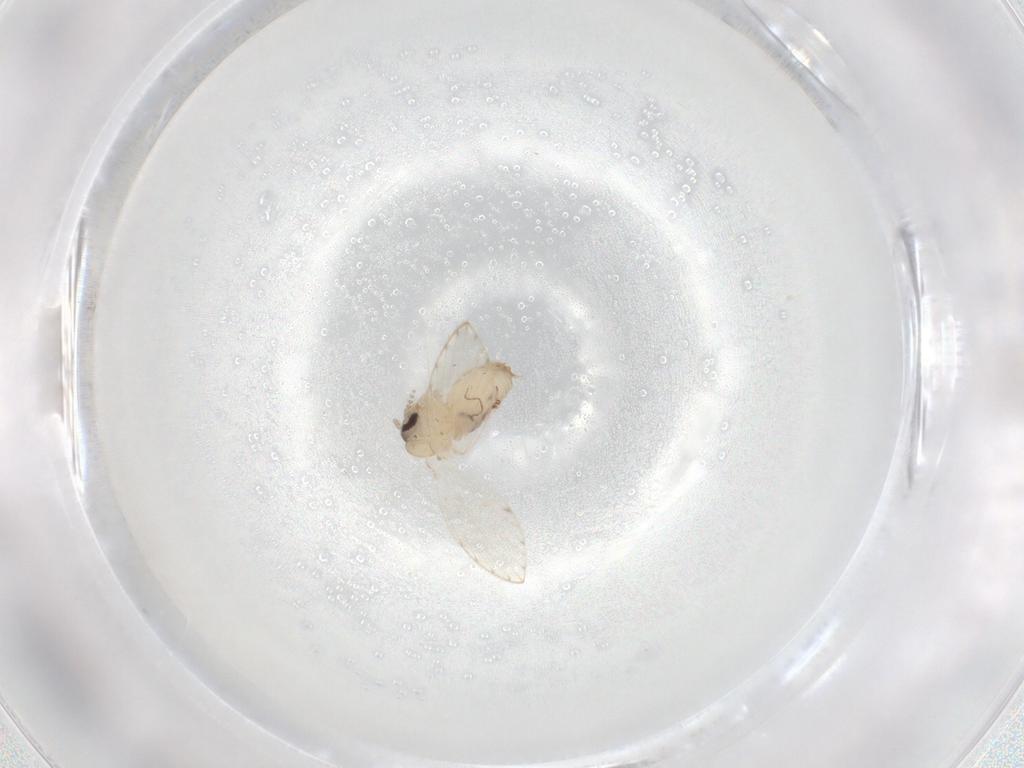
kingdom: Animalia
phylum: Arthropoda
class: Insecta
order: Diptera
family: Psychodidae
